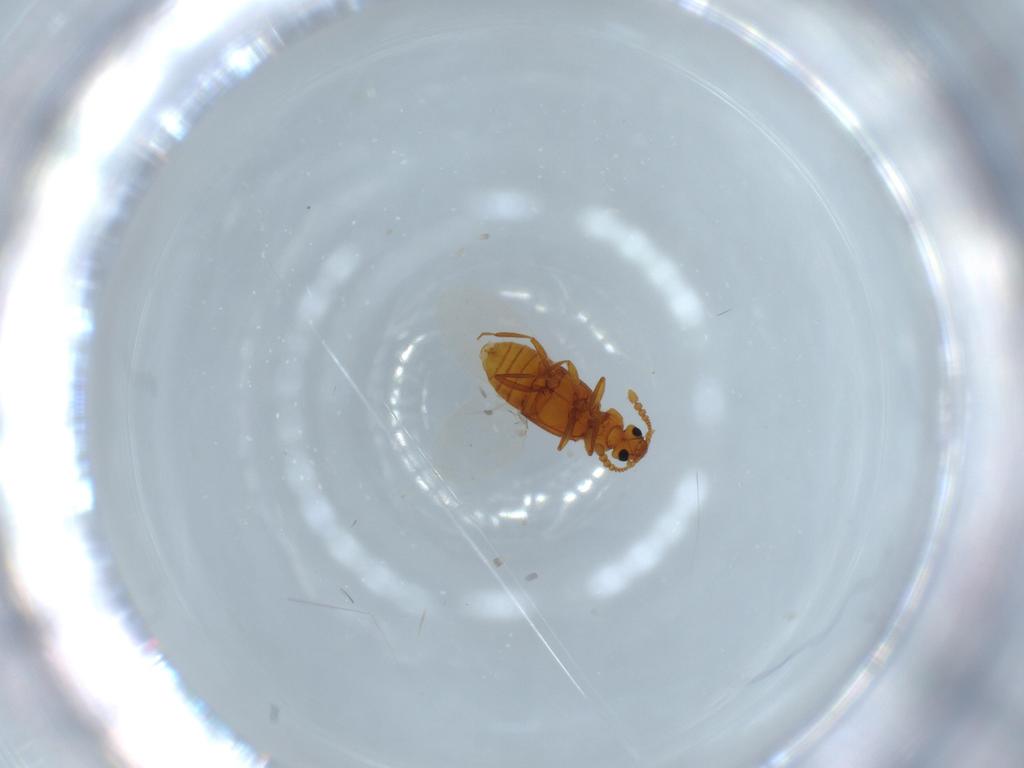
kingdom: Animalia
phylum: Arthropoda
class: Insecta
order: Coleoptera
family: Staphylinidae
